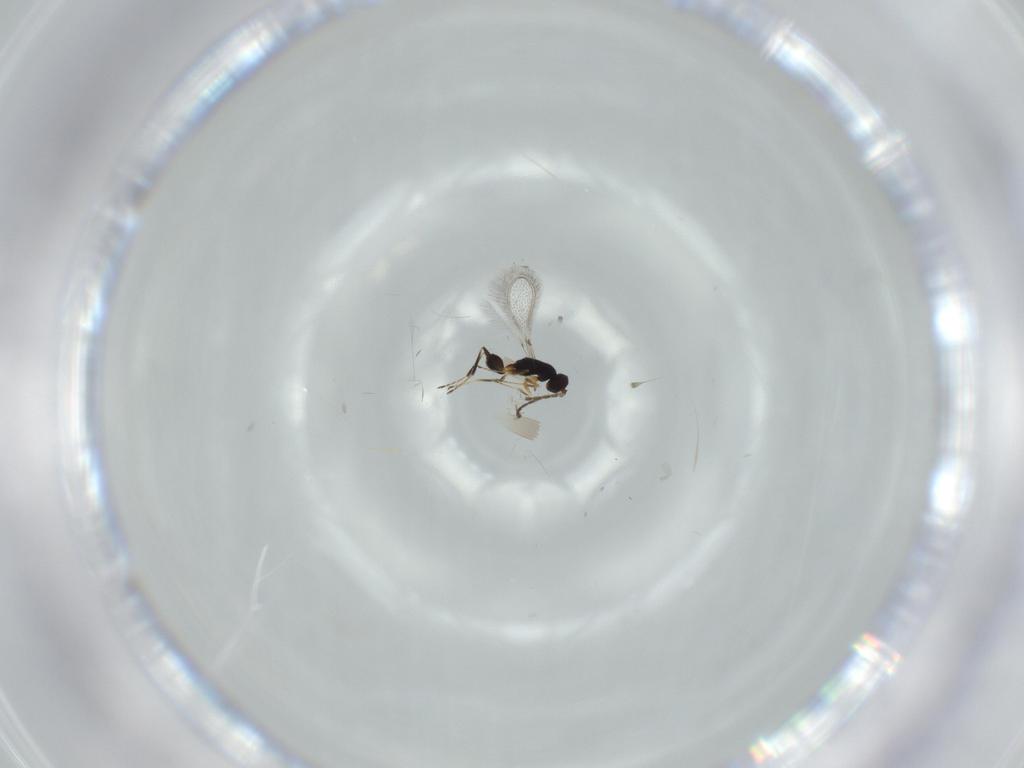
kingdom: Animalia
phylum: Arthropoda
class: Insecta
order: Hymenoptera
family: Mymaridae
